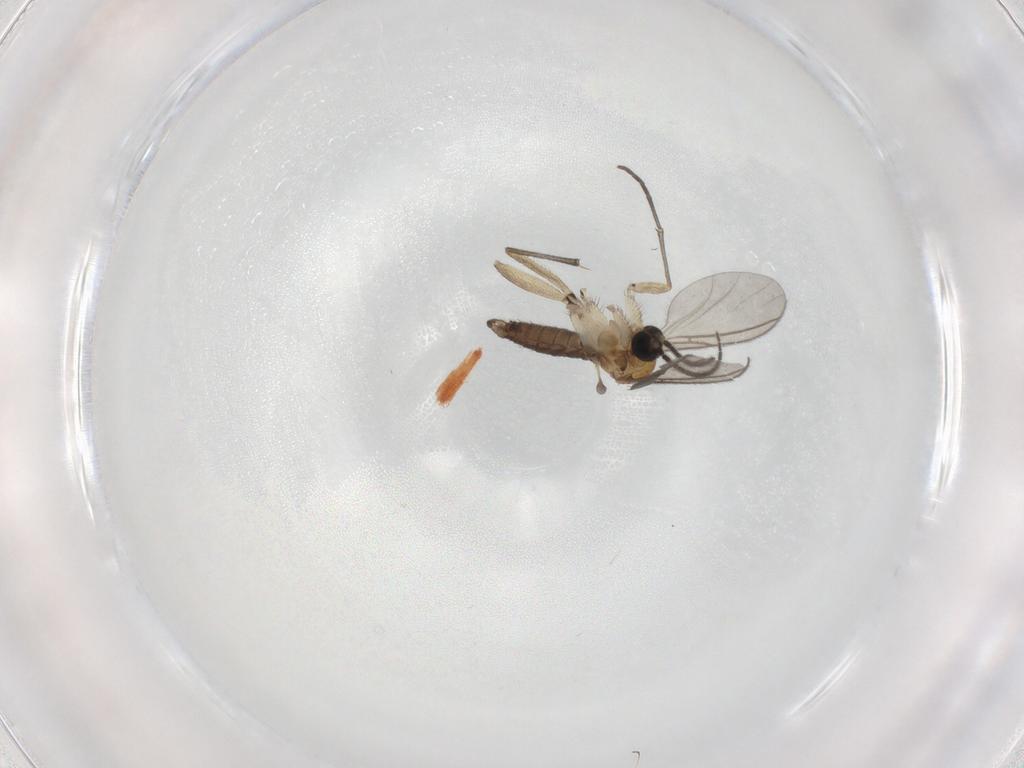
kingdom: Animalia
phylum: Arthropoda
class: Insecta
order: Diptera
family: Sciaridae
